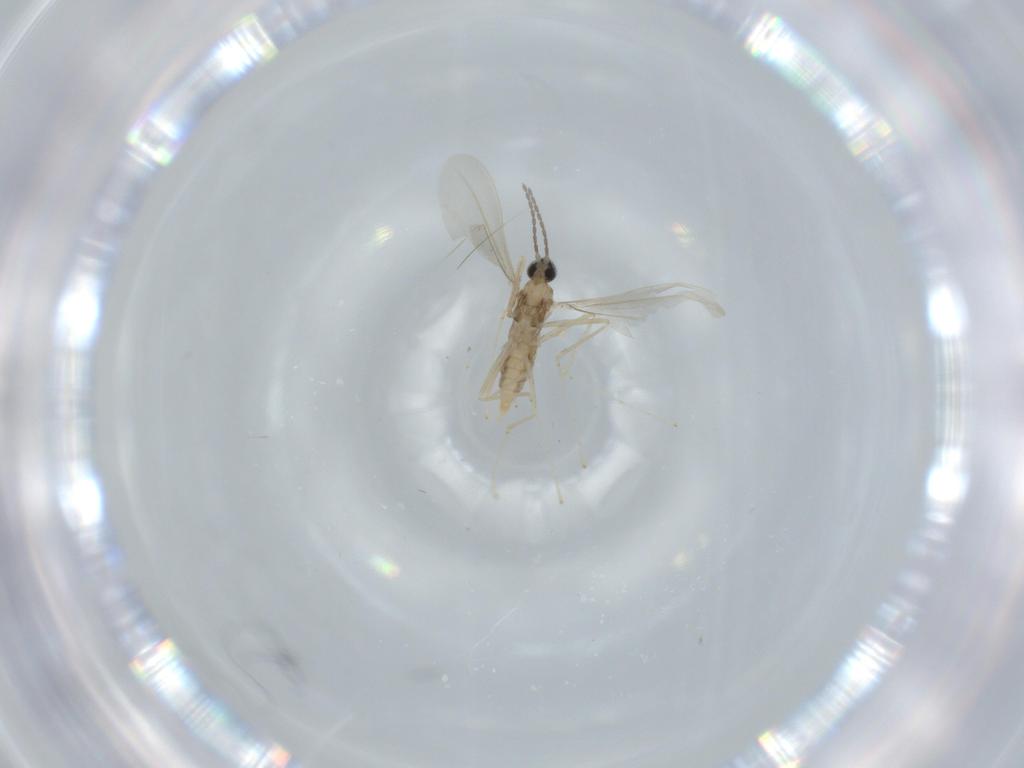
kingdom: Animalia
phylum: Arthropoda
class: Insecta
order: Diptera
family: Cecidomyiidae
